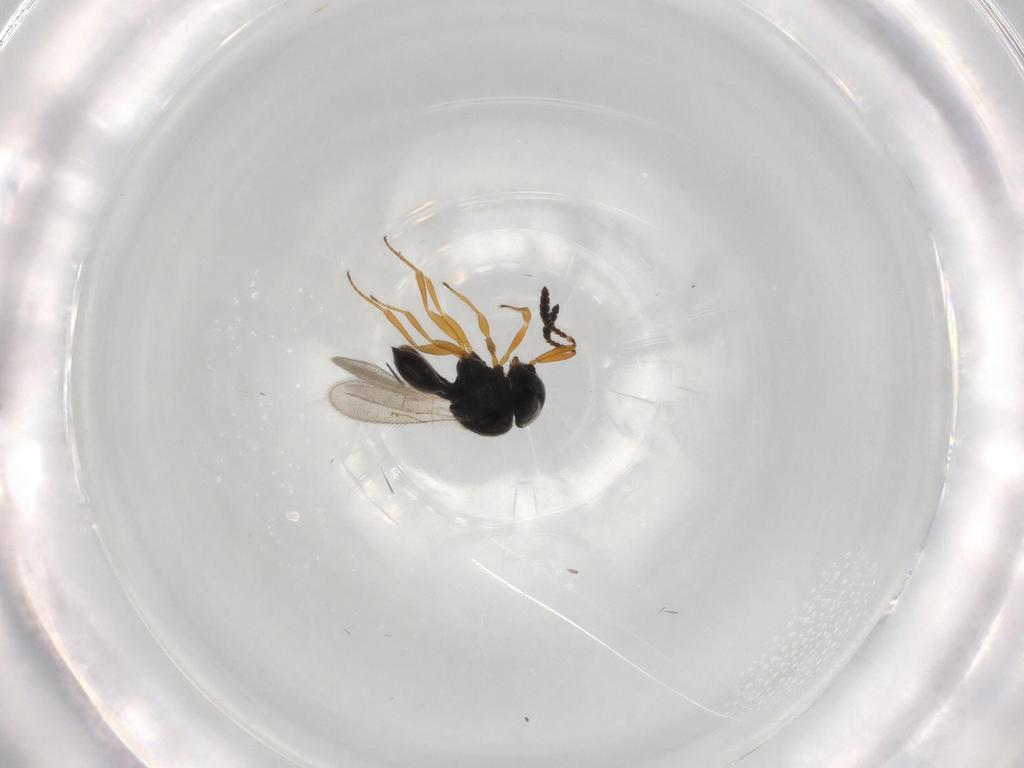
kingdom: Animalia
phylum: Arthropoda
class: Insecta
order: Hymenoptera
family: Scelionidae
